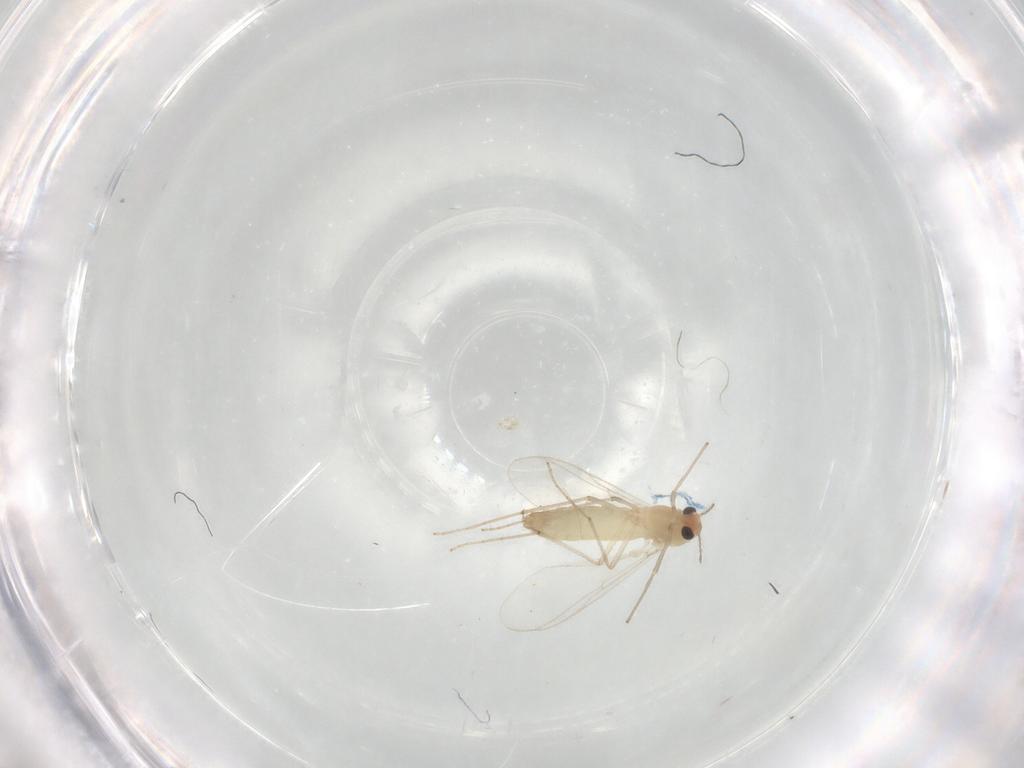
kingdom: Animalia
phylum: Arthropoda
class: Insecta
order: Diptera
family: Chironomidae
